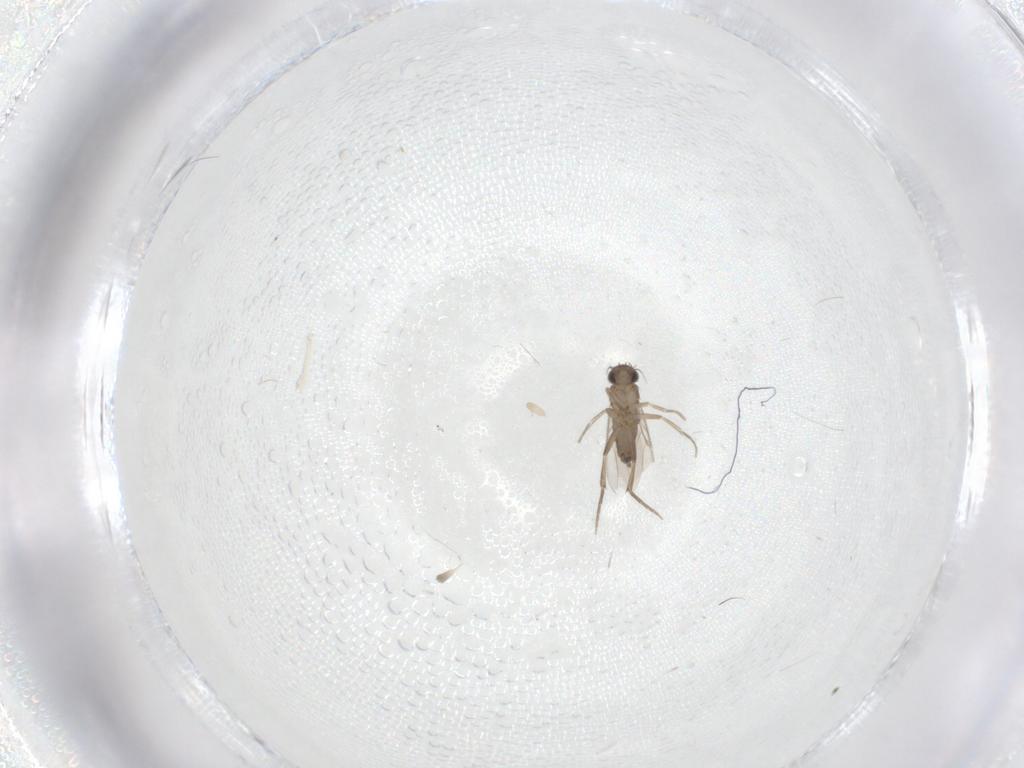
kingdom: Animalia
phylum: Arthropoda
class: Insecta
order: Diptera
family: Phoridae
